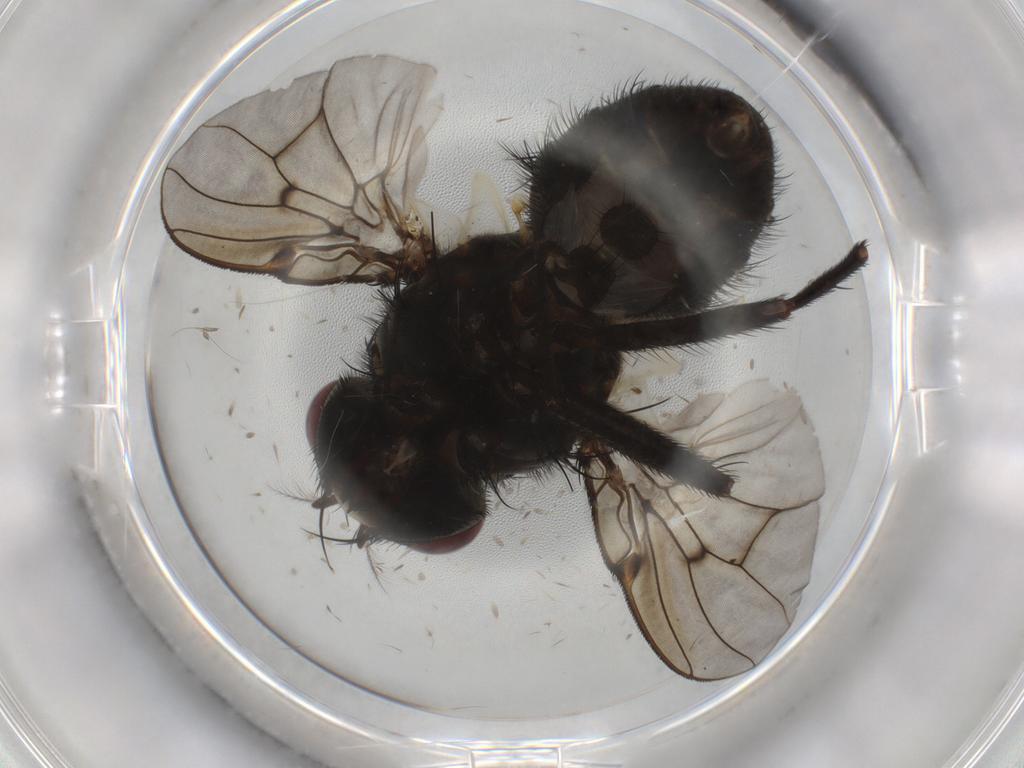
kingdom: Animalia
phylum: Arthropoda
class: Insecta
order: Diptera
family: Muscidae
